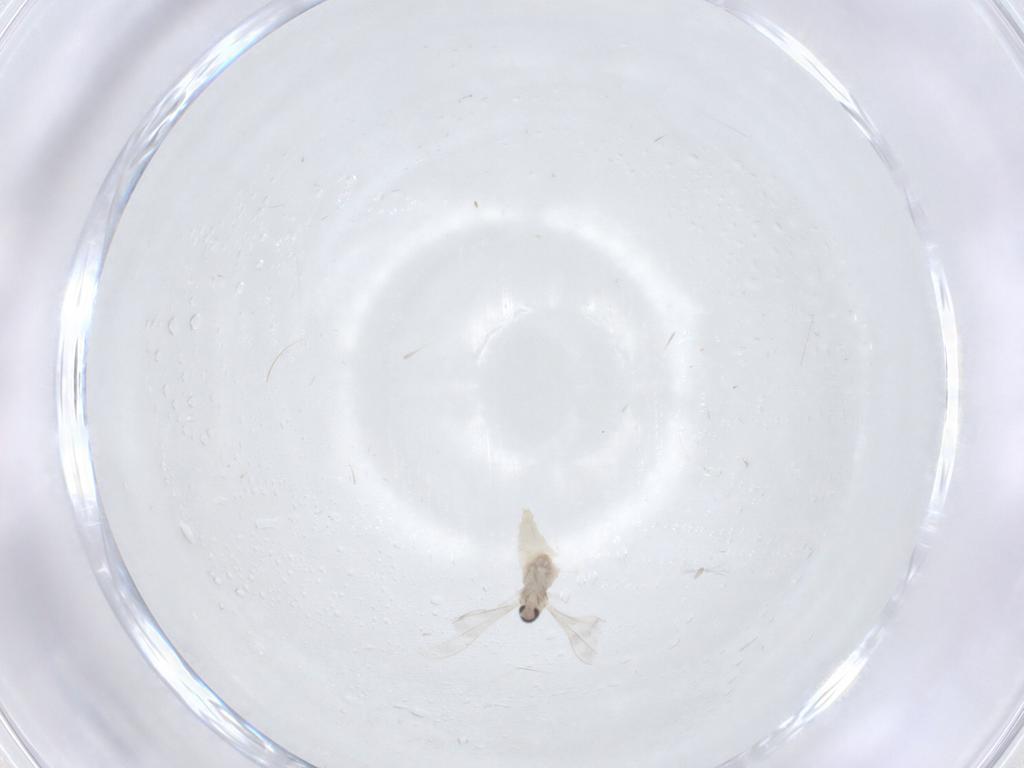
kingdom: Animalia
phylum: Arthropoda
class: Insecta
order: Diptera
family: Cecidomyiidae
